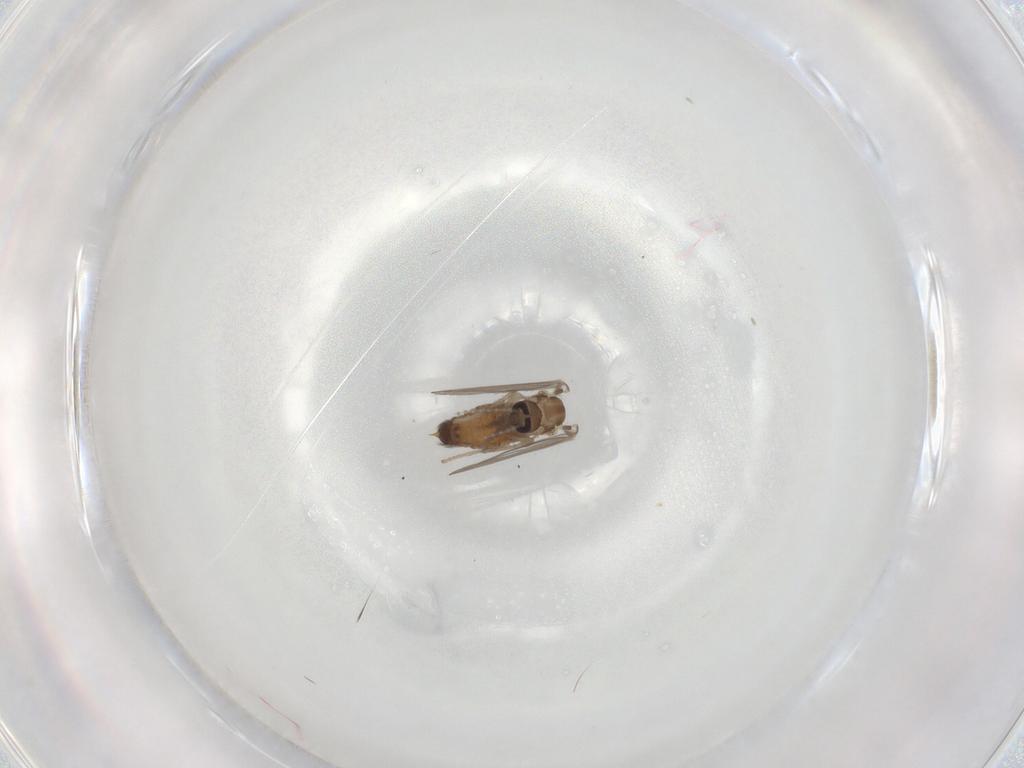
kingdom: Animalia
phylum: Arthropoda
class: Insecta
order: Diptera
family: Psychodidae
